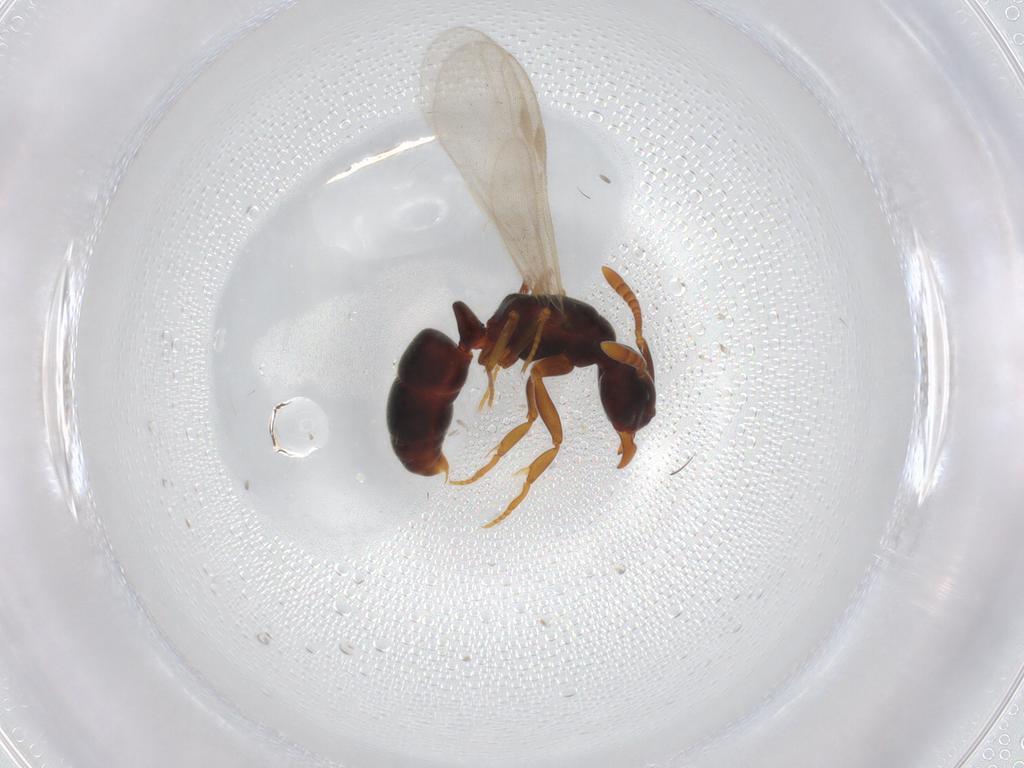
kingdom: Animalia
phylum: Arthropoda
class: Insecta
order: Hymenoptera
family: Formicidae
